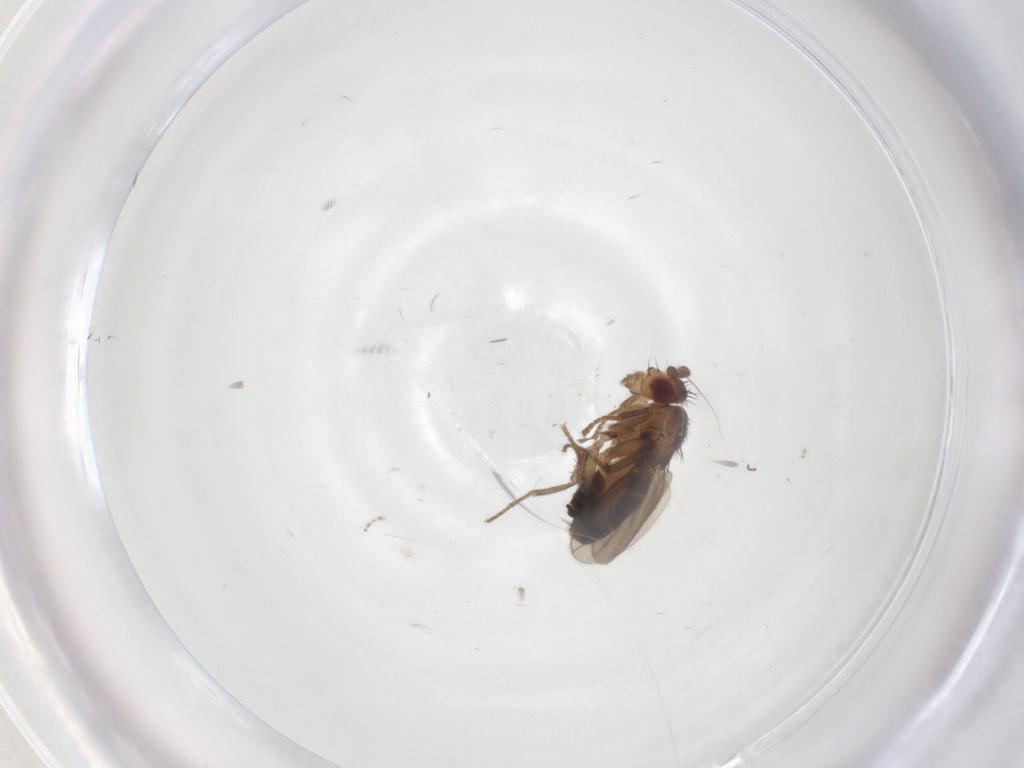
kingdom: Animalia
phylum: Arthropoda
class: Insecta
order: Diptera
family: Sphaeroceridae
